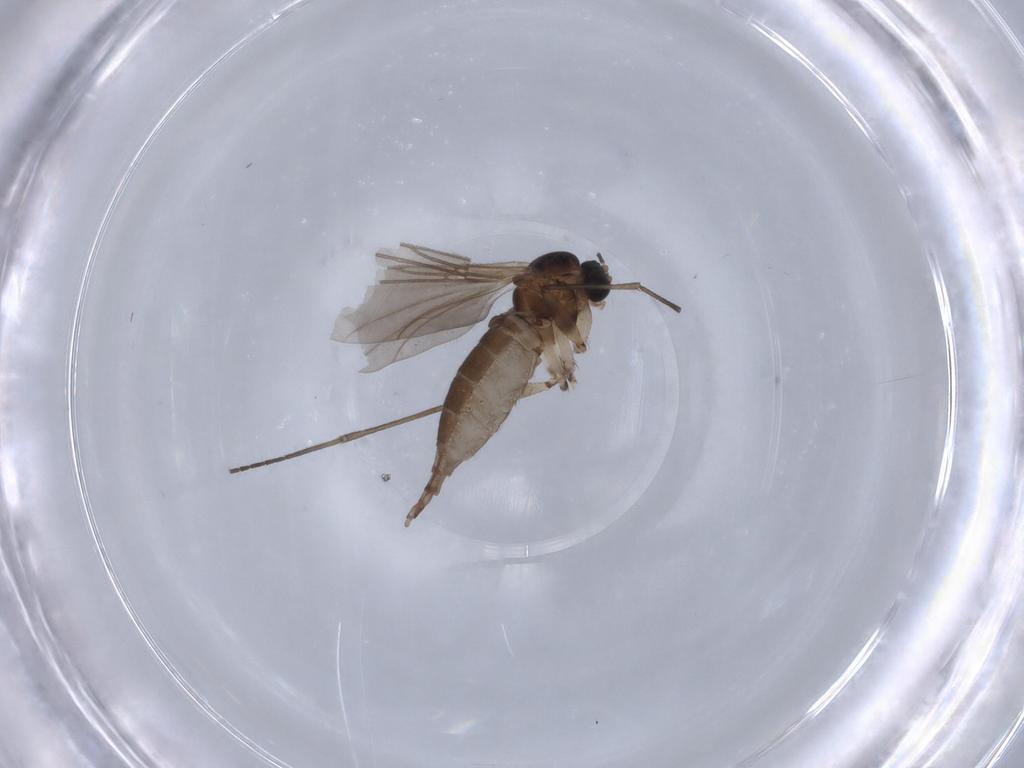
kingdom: Animalia
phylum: Arthropoda
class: Insecta
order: Diptera
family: Sciaridae
